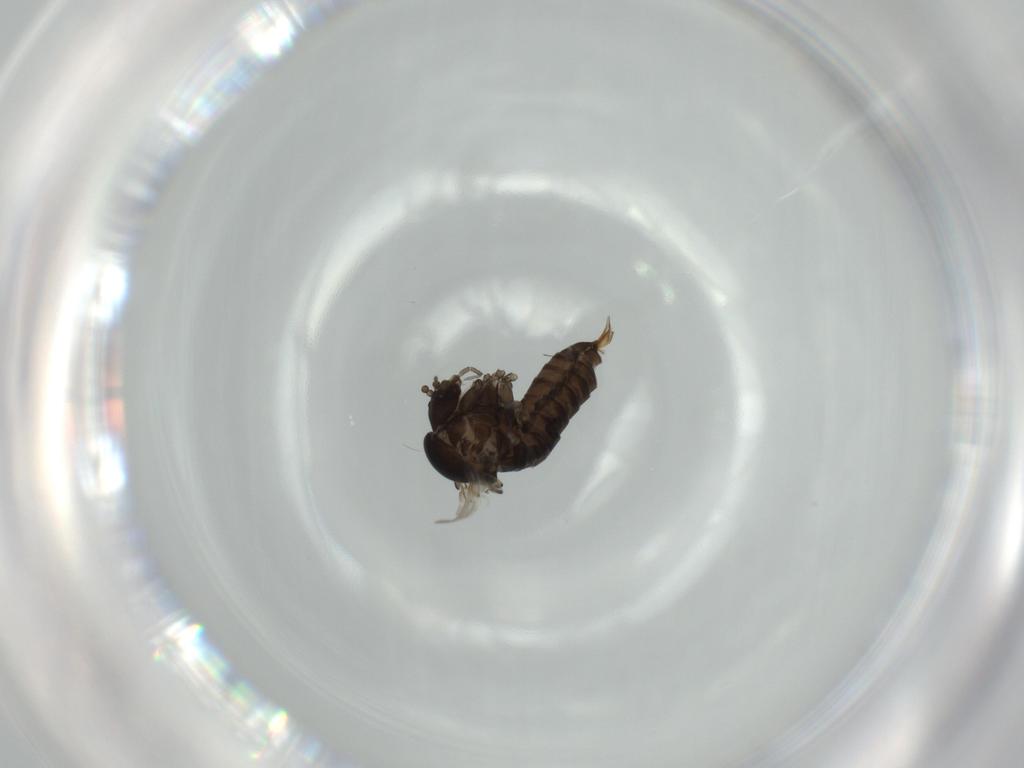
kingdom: Animalia
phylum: Arthropoda
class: Insecta
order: Diptera
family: Psychodidae
